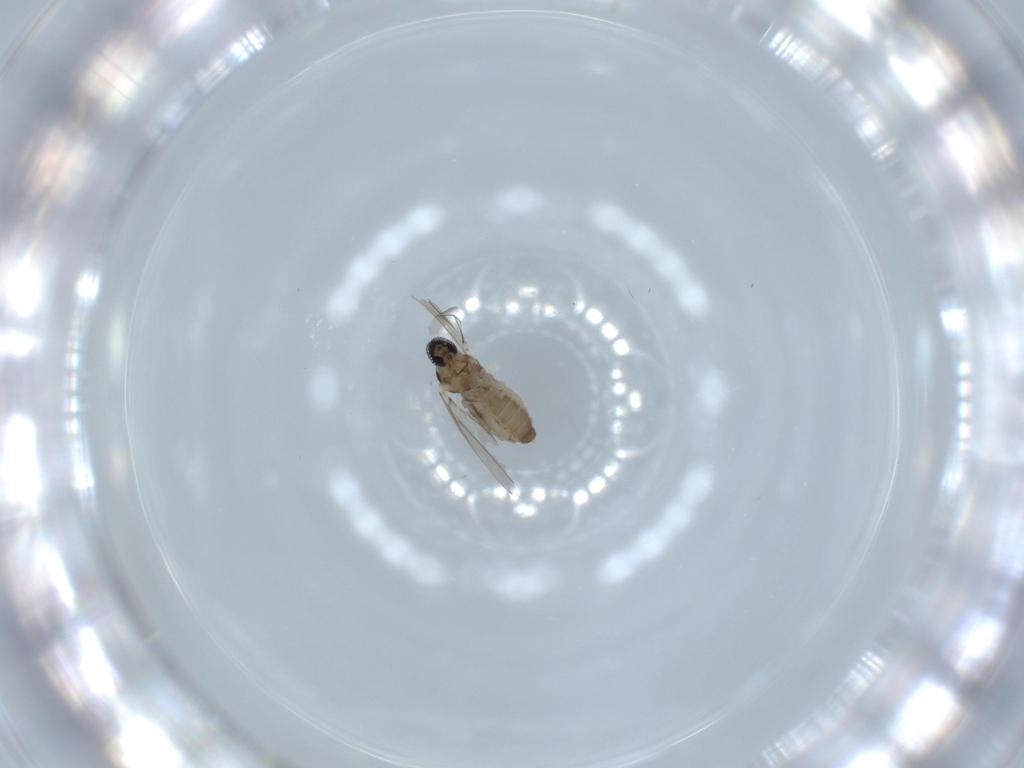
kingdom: Animalia
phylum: Arthropoda
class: Insecta
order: Diptera
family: Cecidomyiidae
